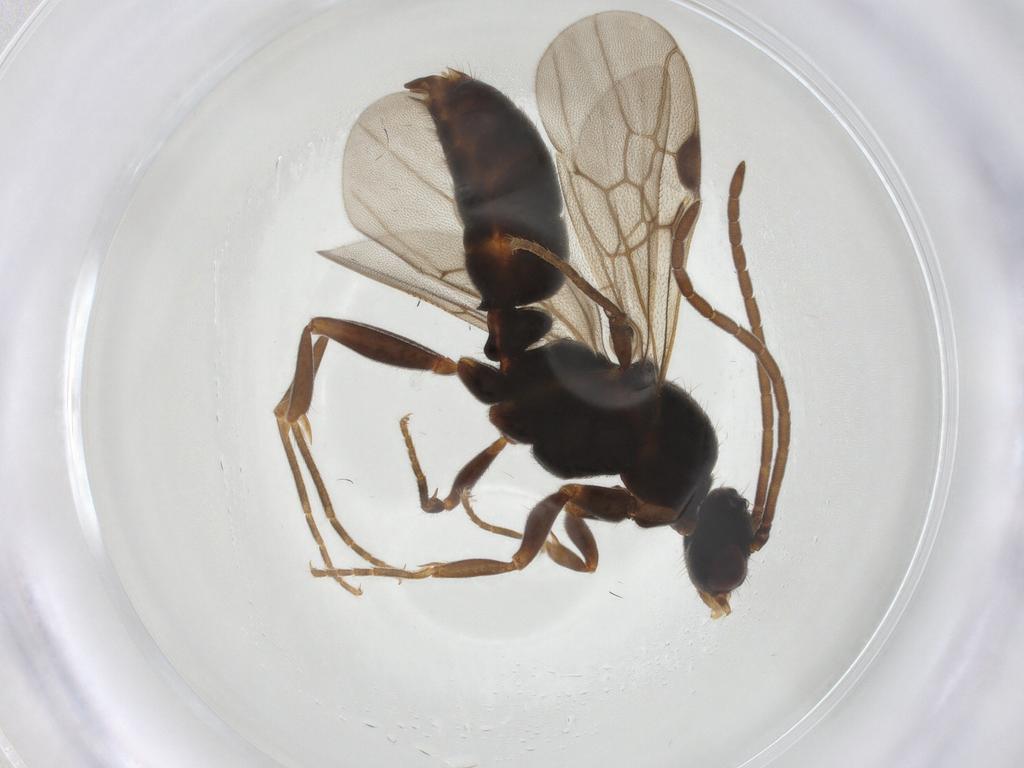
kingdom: Animalia
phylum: Arthropoda
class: Insecta
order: Hymenoptera
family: Formicidae
